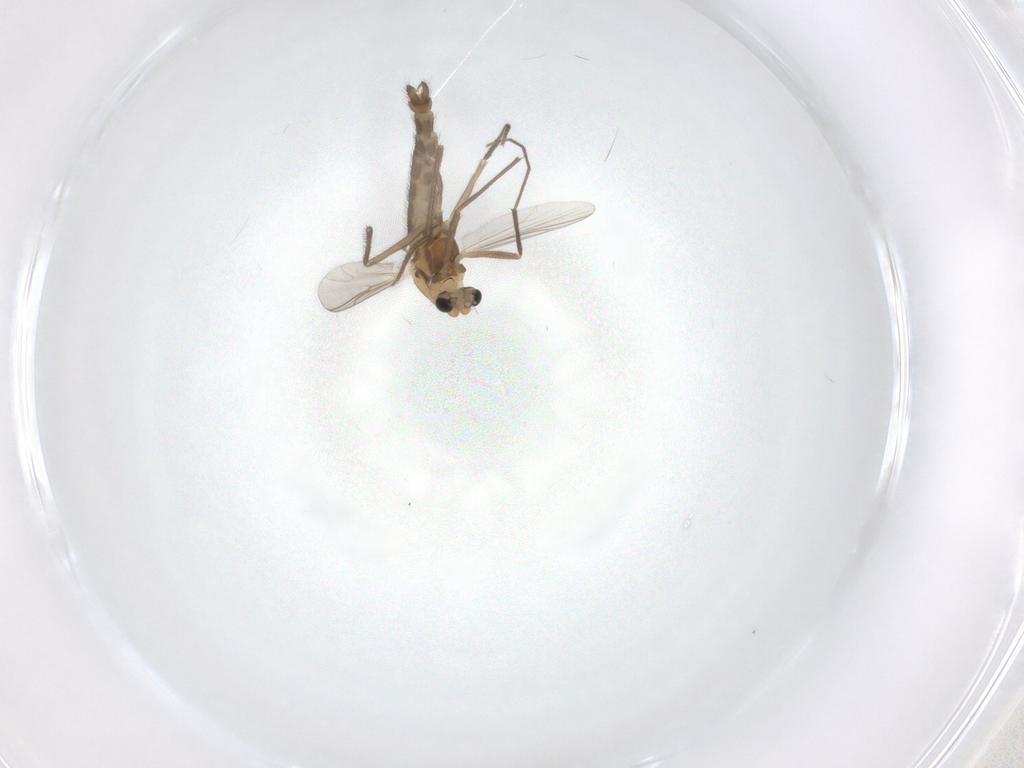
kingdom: Animalia
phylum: Arthropoda
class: Insecta
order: Diptera
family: Chironomidae
